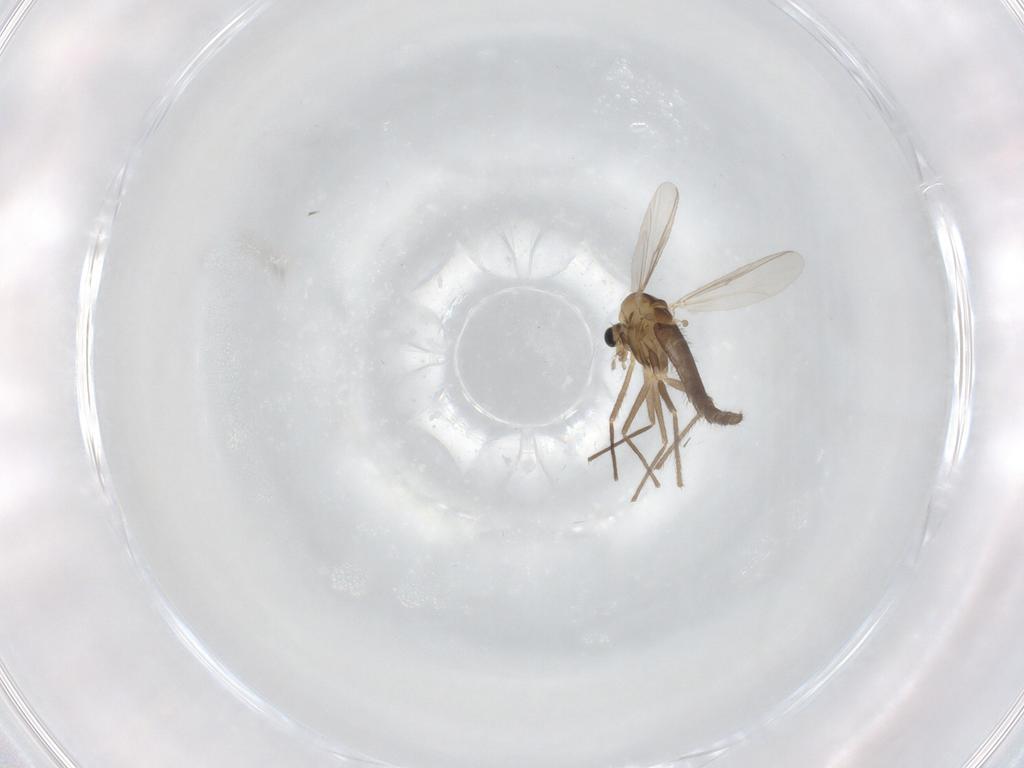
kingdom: Animalia
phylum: Arthropoda
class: Insecta
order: Diptera
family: Chironomidae
